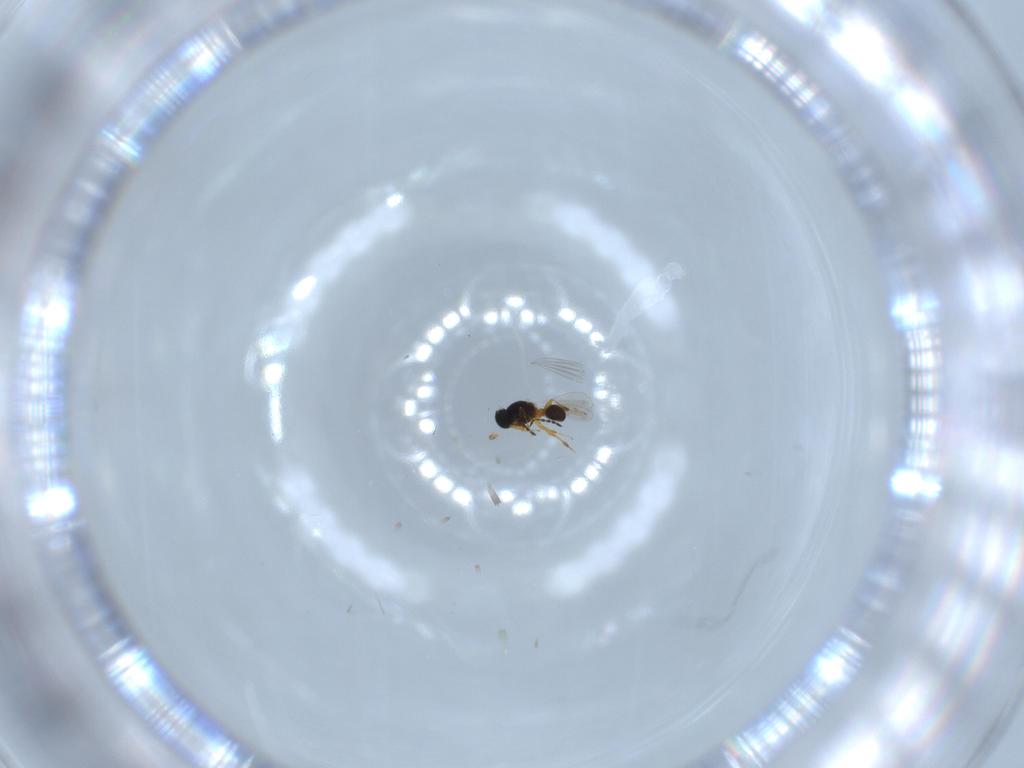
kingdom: Animalia
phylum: Arthropoda
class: Insecta
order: Hymenoptera
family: Platygastridae
